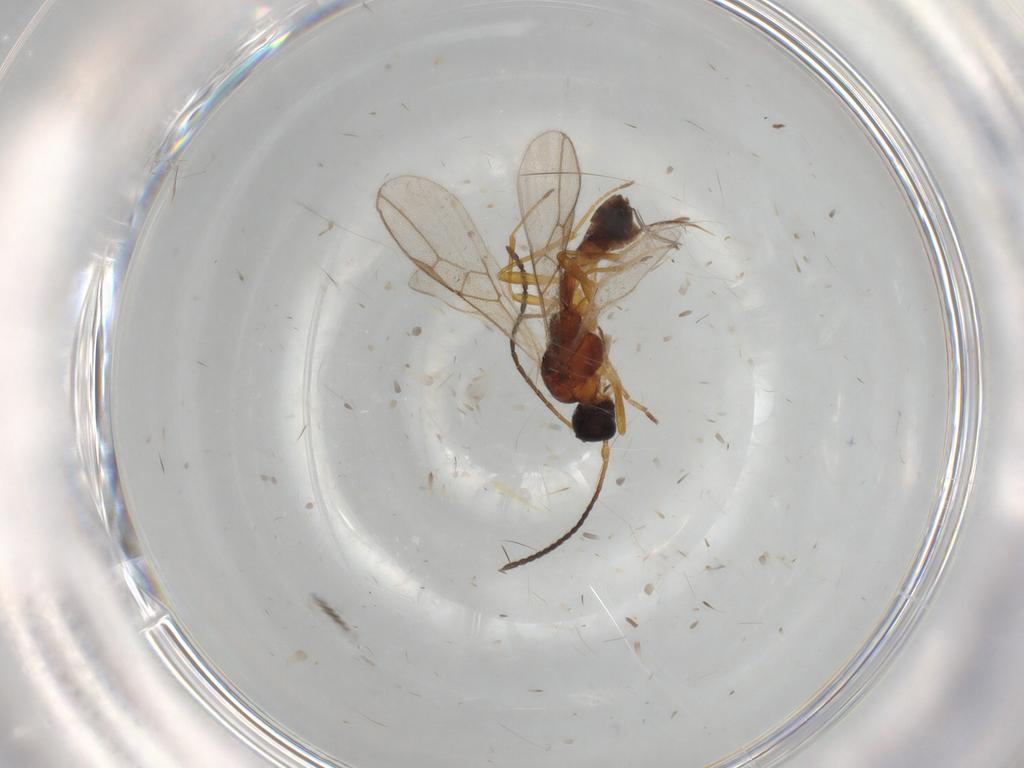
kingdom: Animalia
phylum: Arthropoda
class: Insecta
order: Hymenoptera
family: Braconidae
